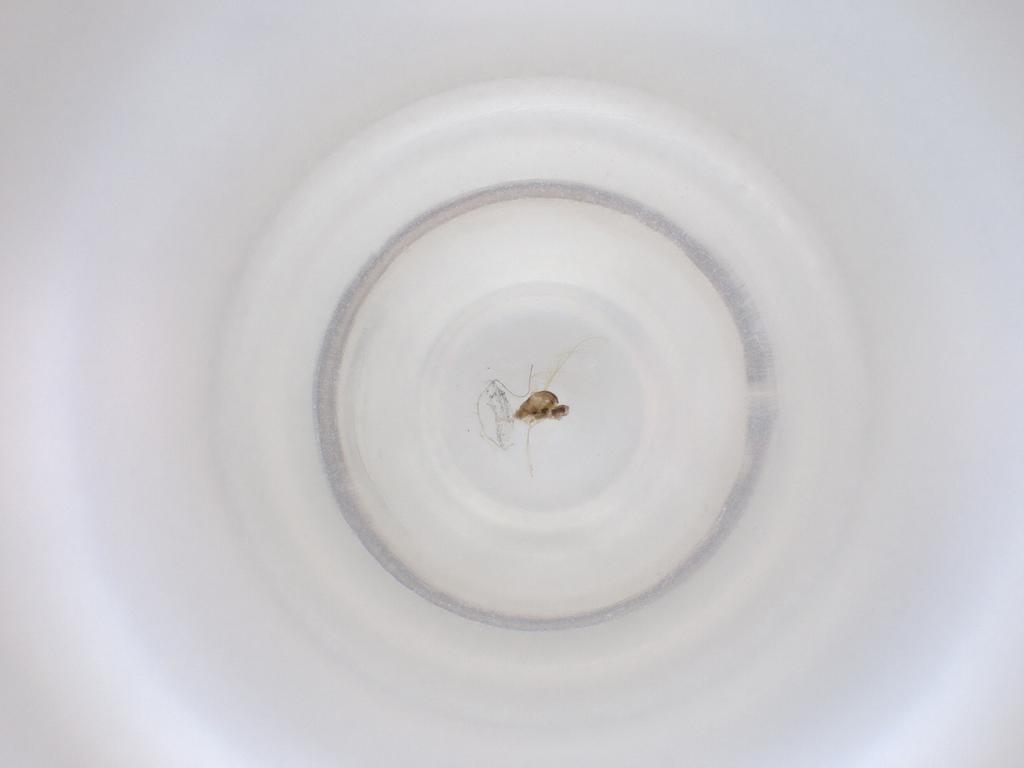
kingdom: Animalia
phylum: Arthropoda
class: Insecta
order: Diptera
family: Cecidomyiidae
